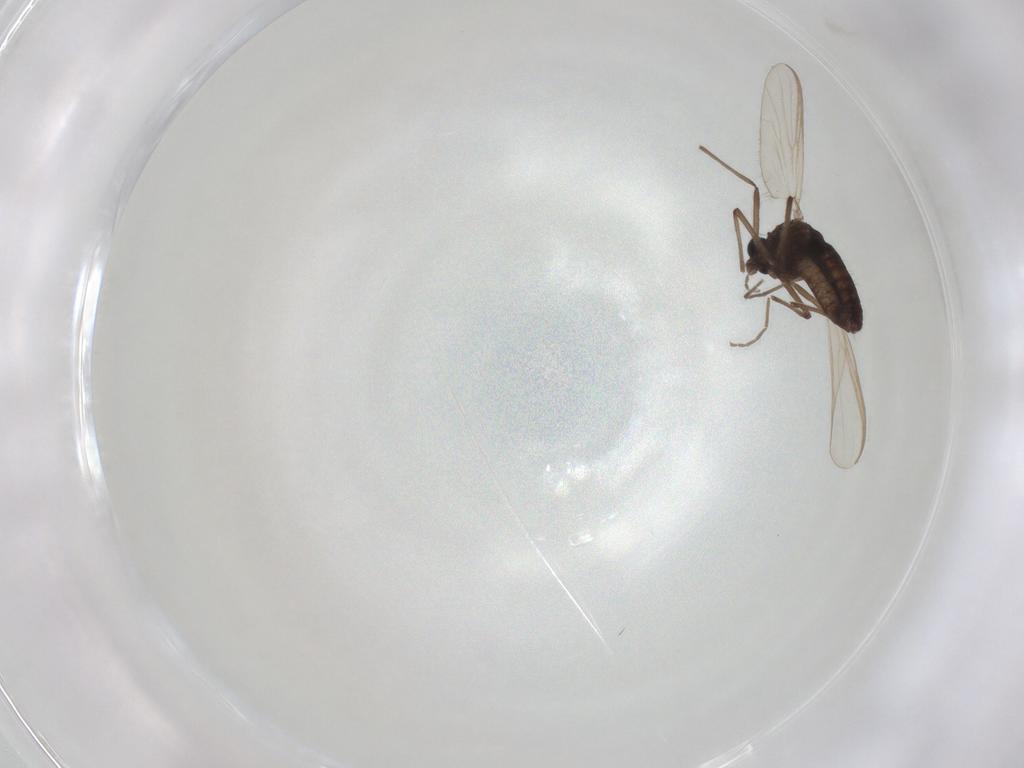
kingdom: Animalia
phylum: Arthropoda
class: Insecta
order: Diptera
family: Chironomidae
